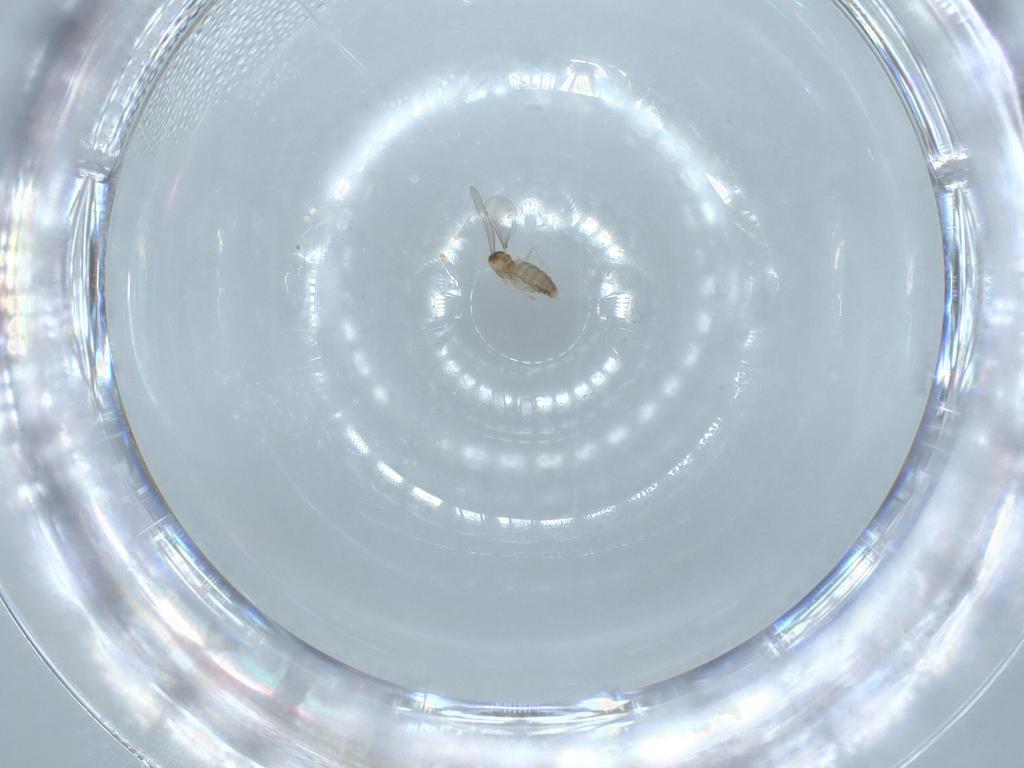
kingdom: Animalia
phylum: Arthropoda
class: Insecta
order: Diptera
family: Cecidomyiidae
